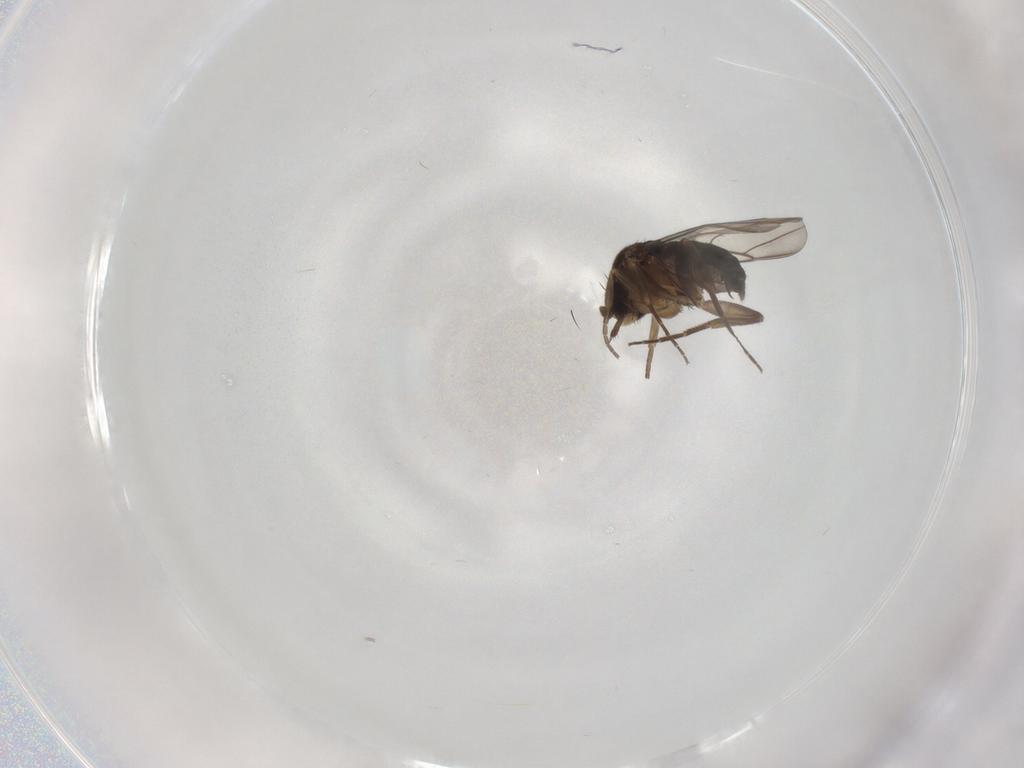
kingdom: Animalia
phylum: Arthropoda
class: Insecta
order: Diptera
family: Phoridae
